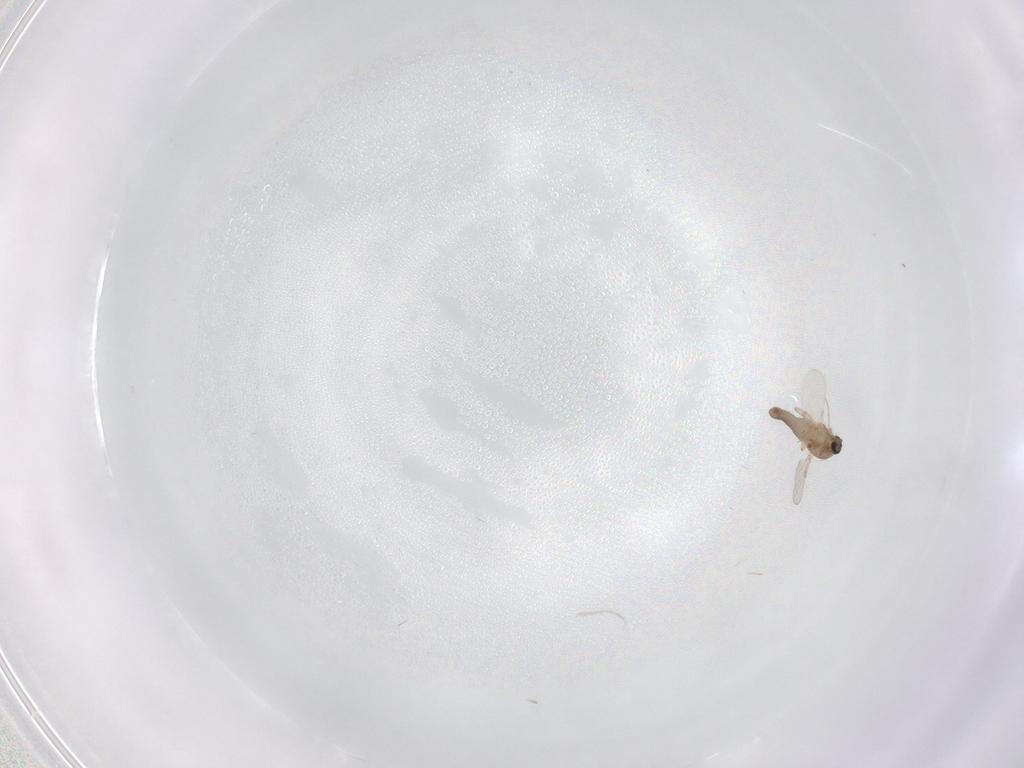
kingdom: Animalia
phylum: Arthropoda
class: Insecta
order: Diptera
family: Ceratopogonidae
